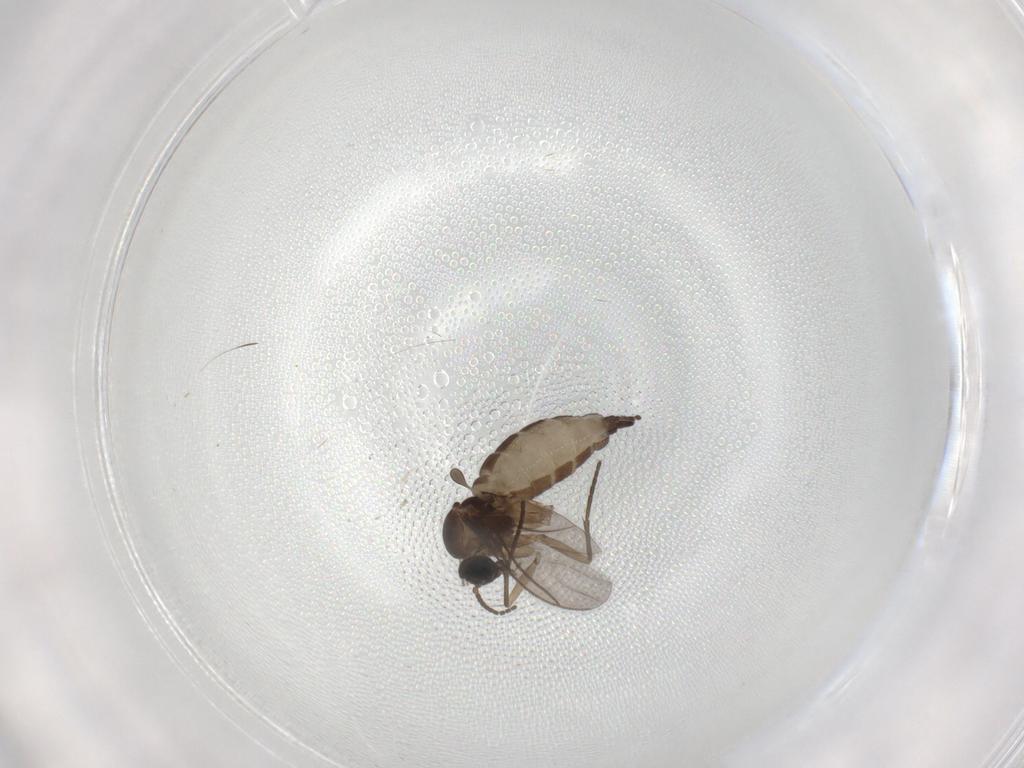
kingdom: Animalia
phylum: Arthropoda
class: Insecta
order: Diptera
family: Sciaridae
